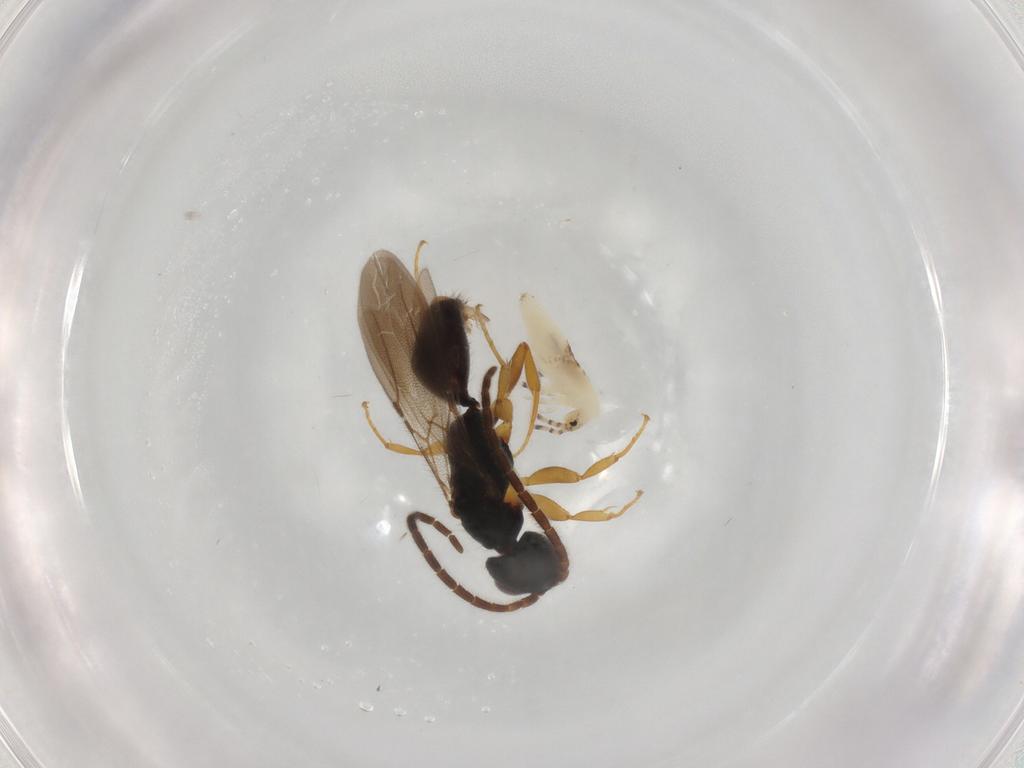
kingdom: Animalia
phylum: Arthropoda
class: Insecta
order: Hymenoptera
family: Bethylidae
